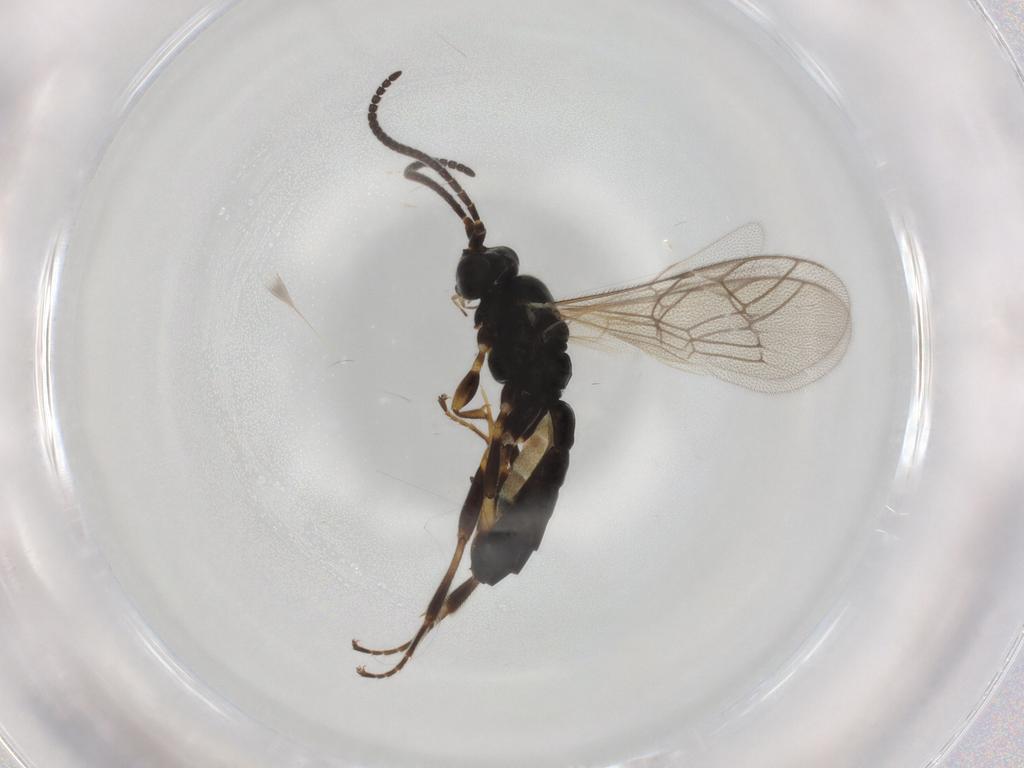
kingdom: Animalia
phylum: Arthropoda
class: Insecta
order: Hymenoptera
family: Ichneumonidae
